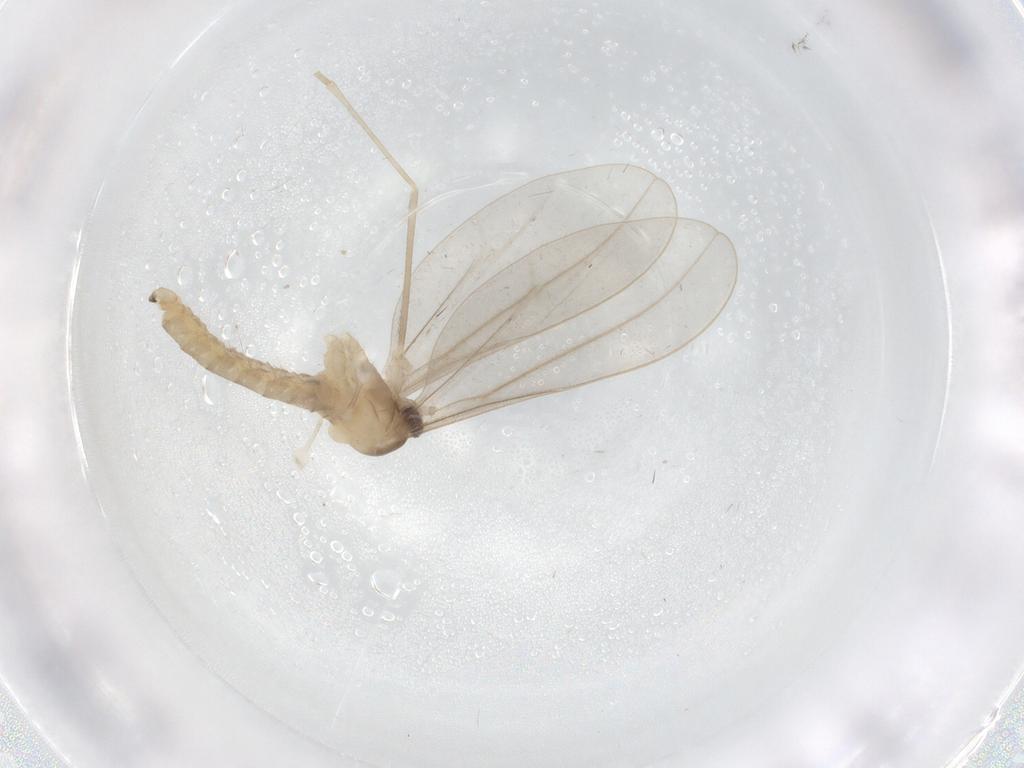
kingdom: Animalia
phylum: Arthropoda
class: Insecta
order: Diptera
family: Cecidomyiidae
